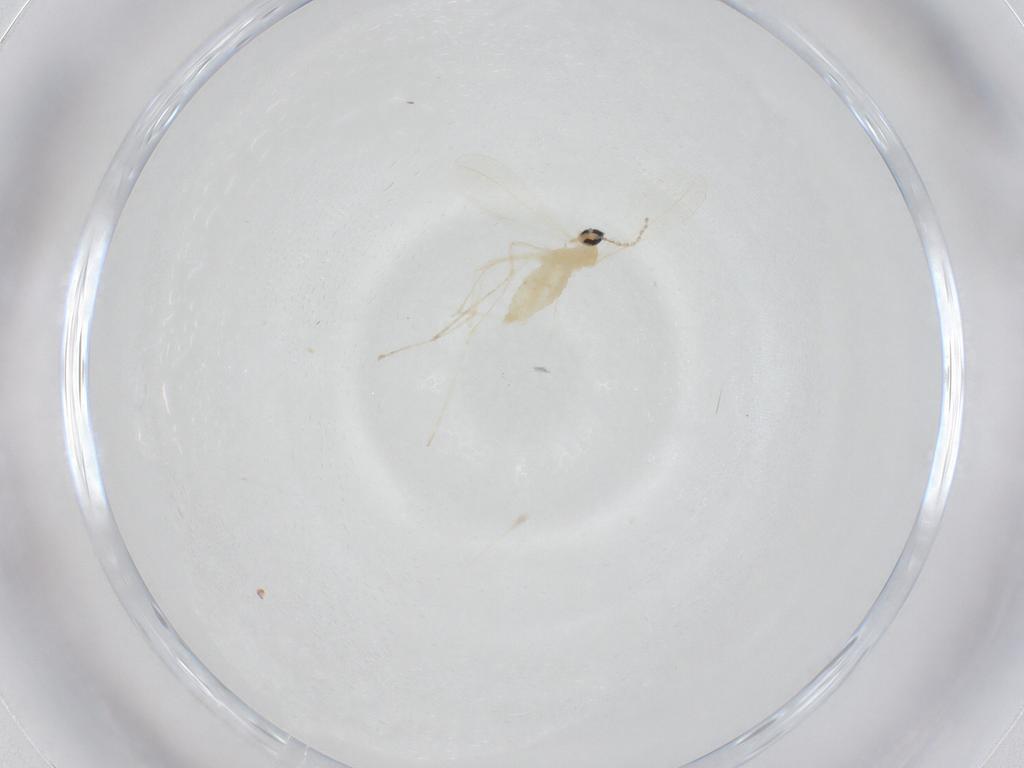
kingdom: Animalia
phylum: Arthropoda
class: Insecta
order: Diptera
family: Cecidomyiidae
